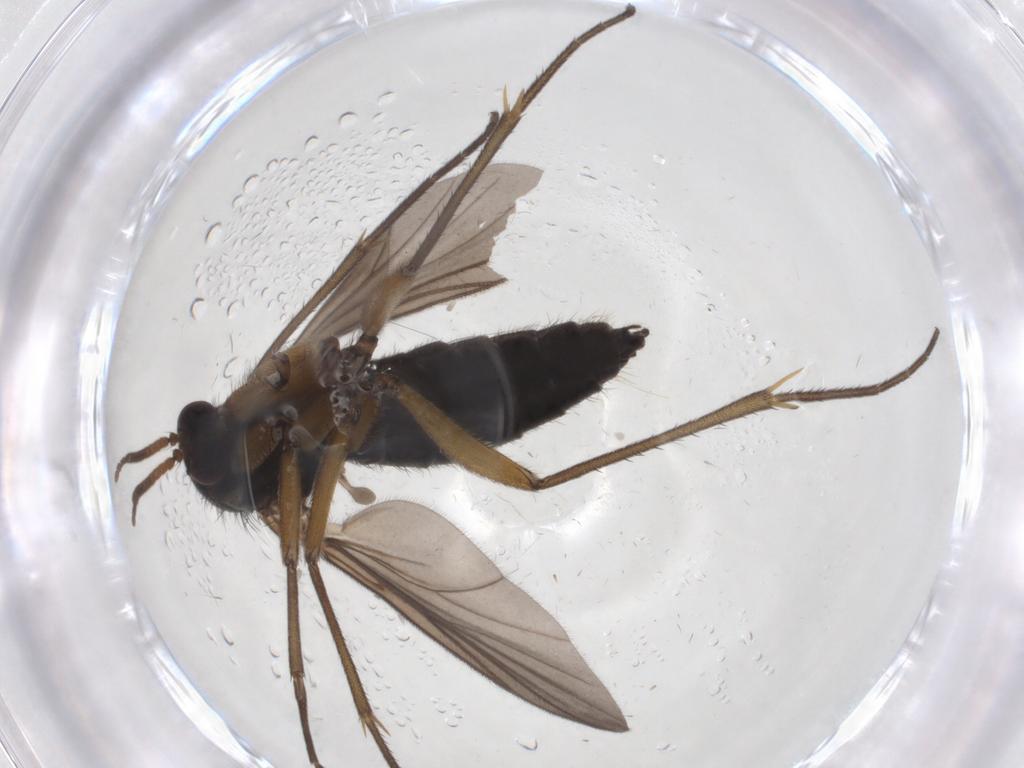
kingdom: Animalia
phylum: Arthropoda
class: Insecta
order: Diptera
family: Mycetophilidae
